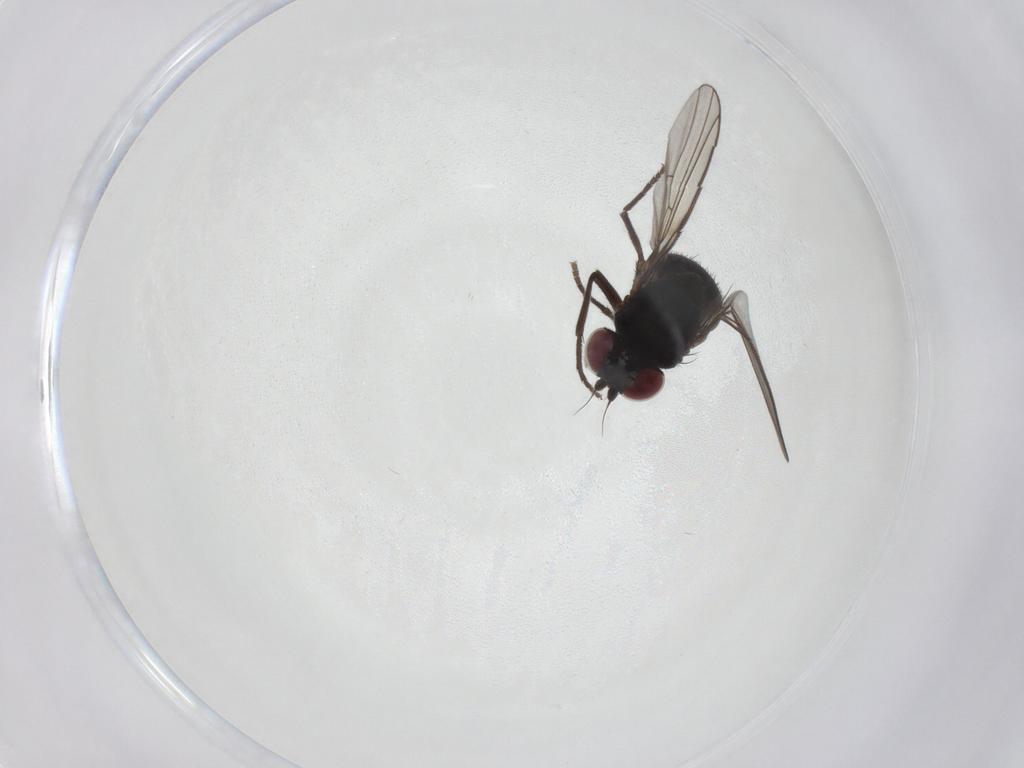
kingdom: Animalia
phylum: Arthropoda
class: Insecta
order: Diptera
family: Agromyzidae
